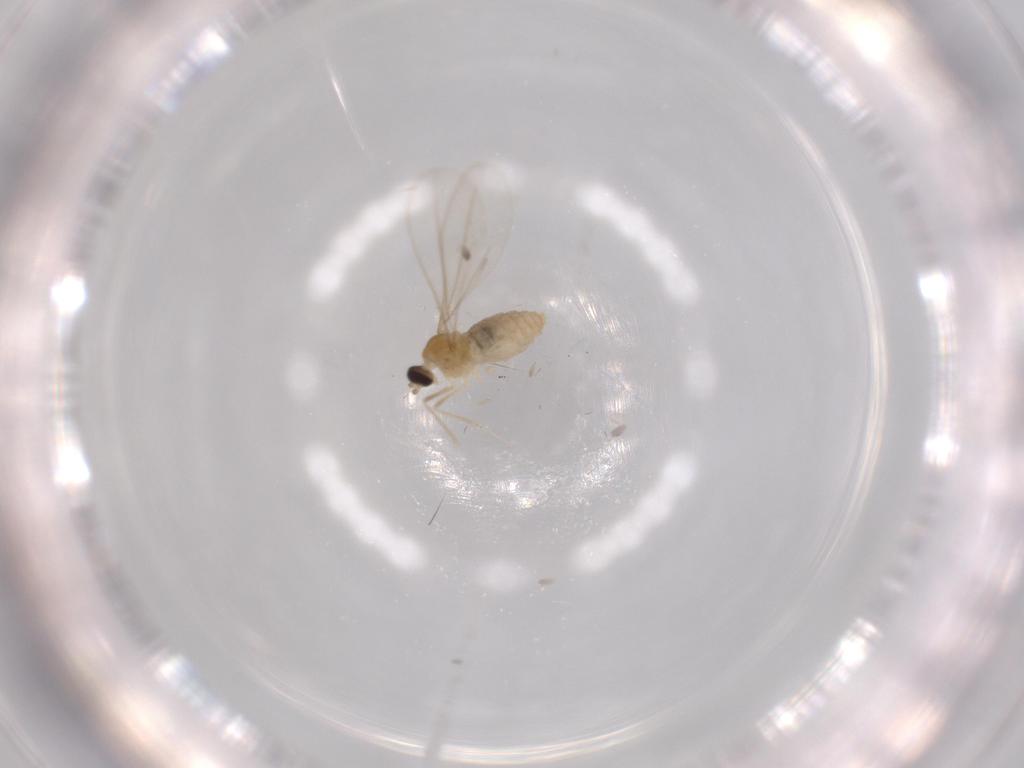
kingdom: Animalia
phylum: Arthropoda
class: Insecta
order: Diptera
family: Cecidomyiidae
